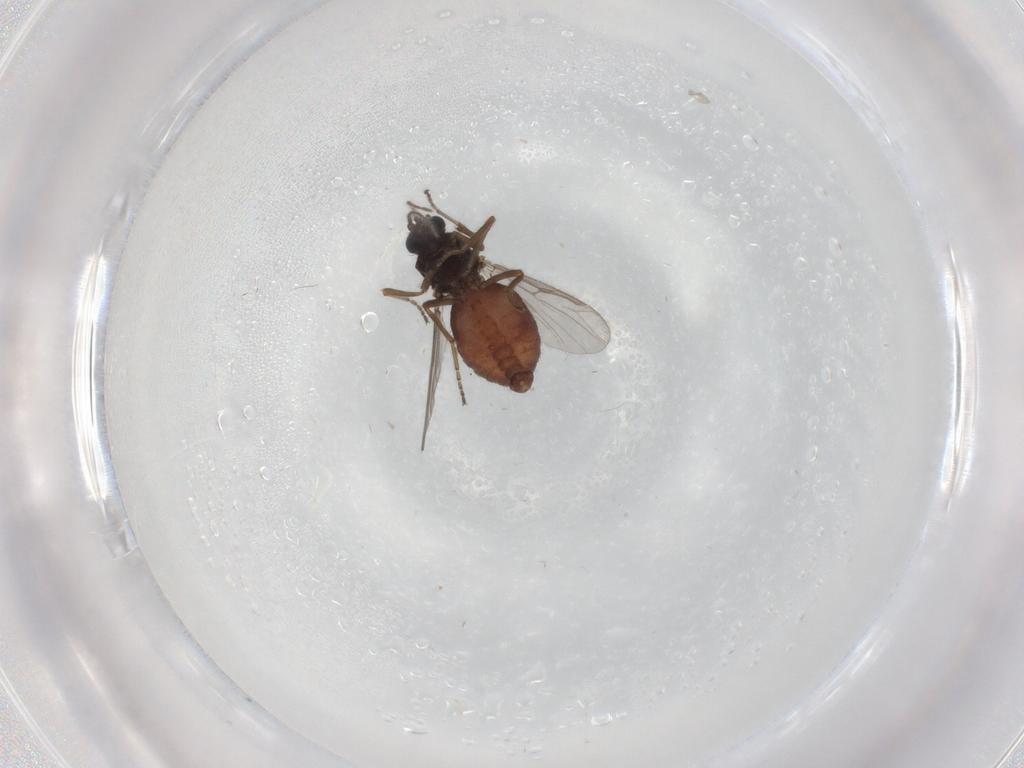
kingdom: Animalia
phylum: Arthropoda
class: Insecta
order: Diptera
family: Ceratopogonidae
